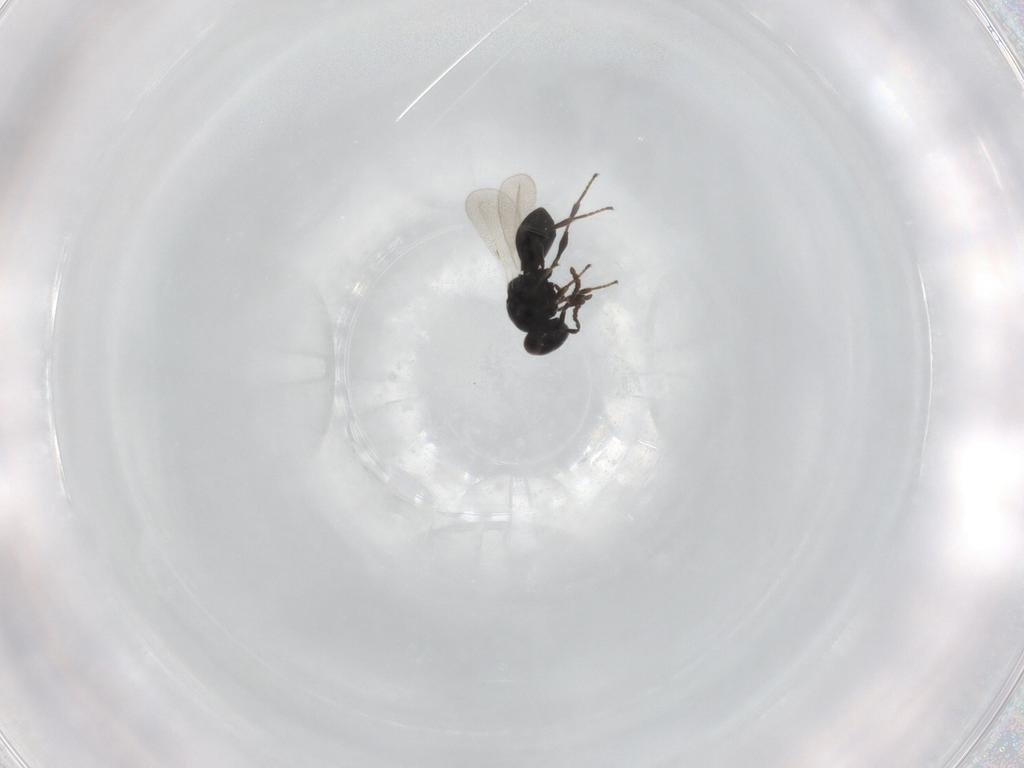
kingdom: Animalia
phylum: Arthropoda
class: Insecta
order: Hymenoptera
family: Platygastridae
